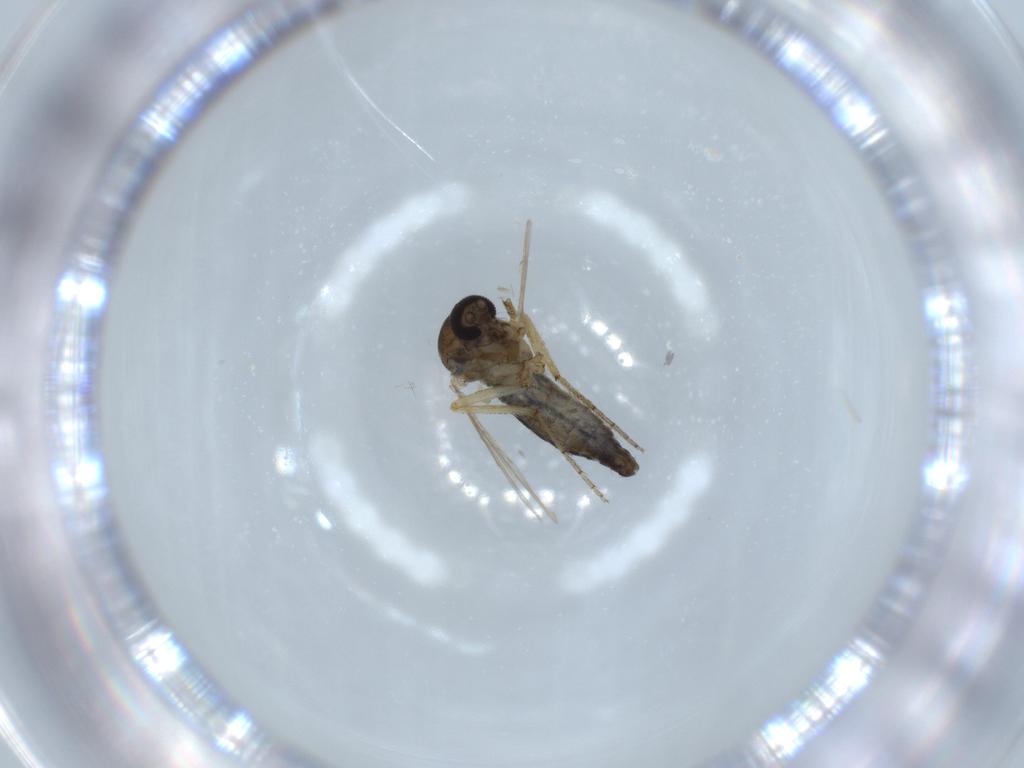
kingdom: Animalia
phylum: Arthropoda
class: Insecta
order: Diptera
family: Ceratopogonidae
